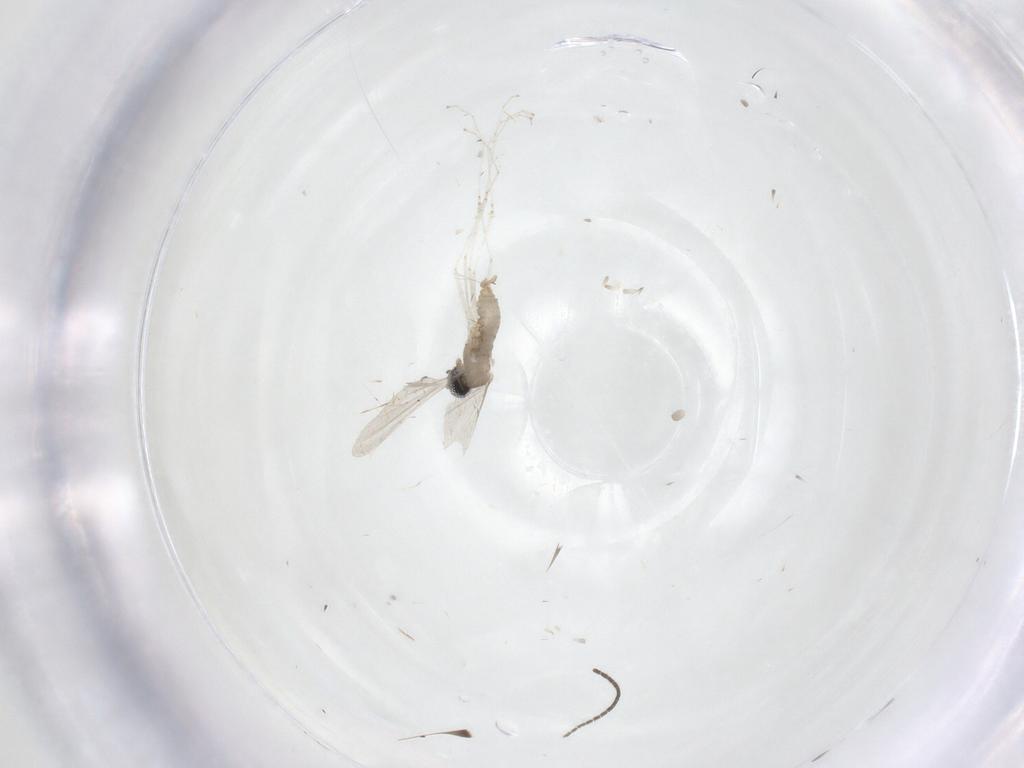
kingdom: Animalia
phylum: Arthropoda
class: Insecta
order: Diptera
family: Cecidomyiidae
